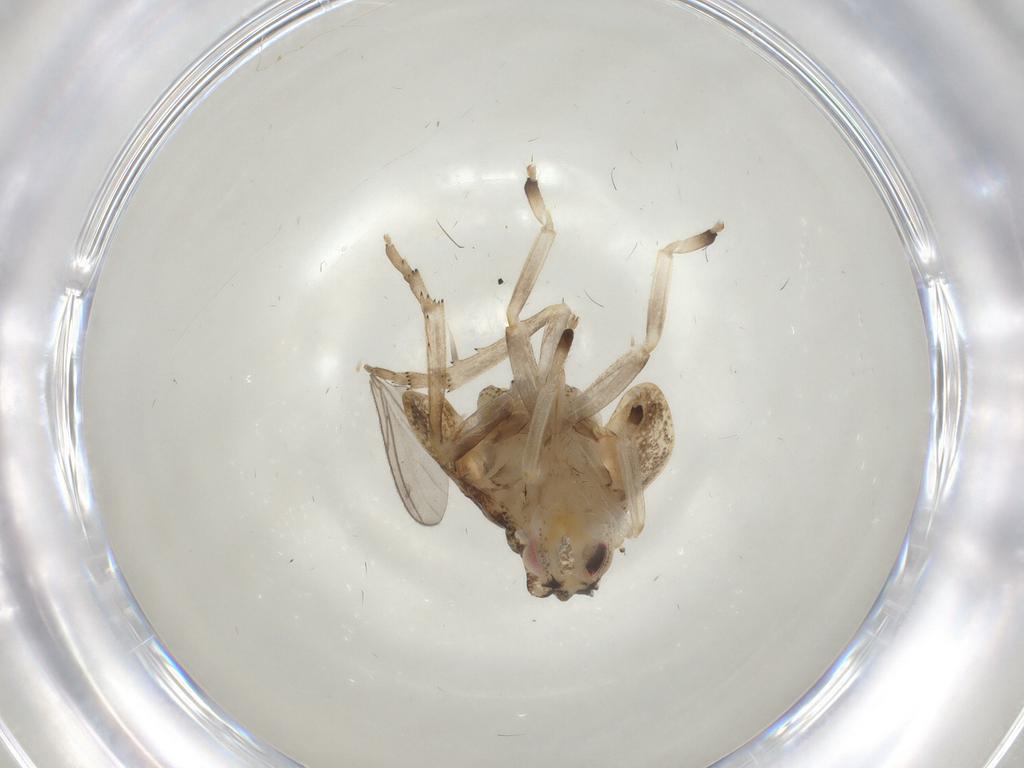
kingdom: Animalia
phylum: Arthropoda
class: Insecta
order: Hemiptera
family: Fulgoroidea_incertae_sedis
